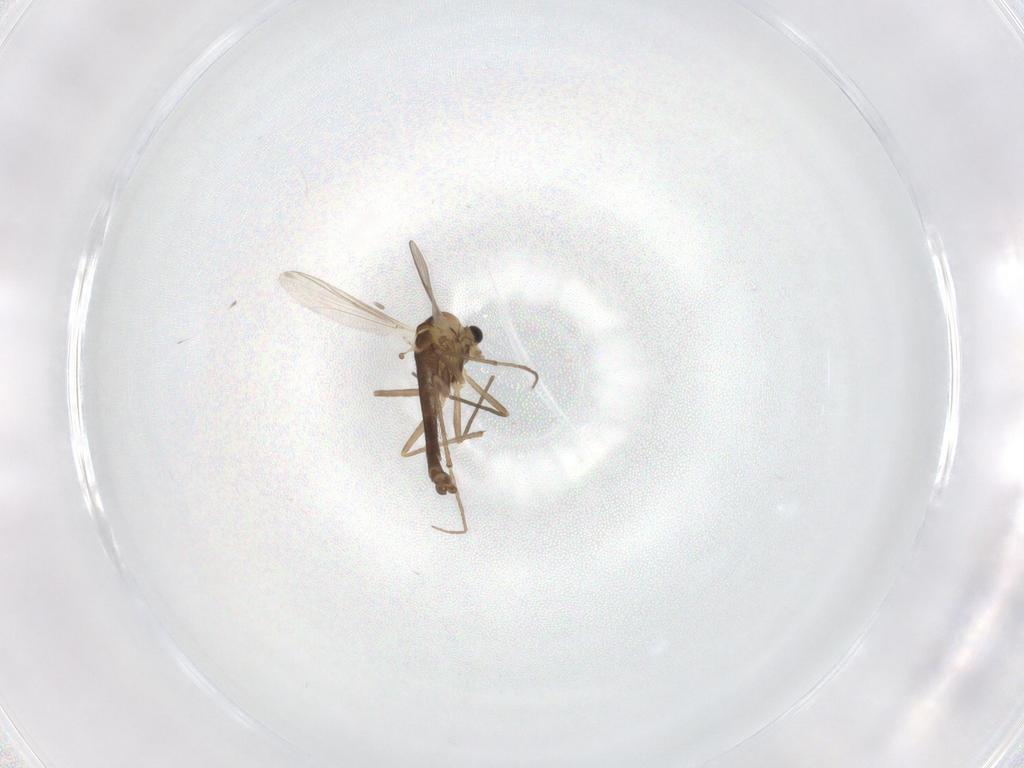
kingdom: Animalia
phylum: Arthropoda
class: Insecta
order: Diptera
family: Chironomidae
